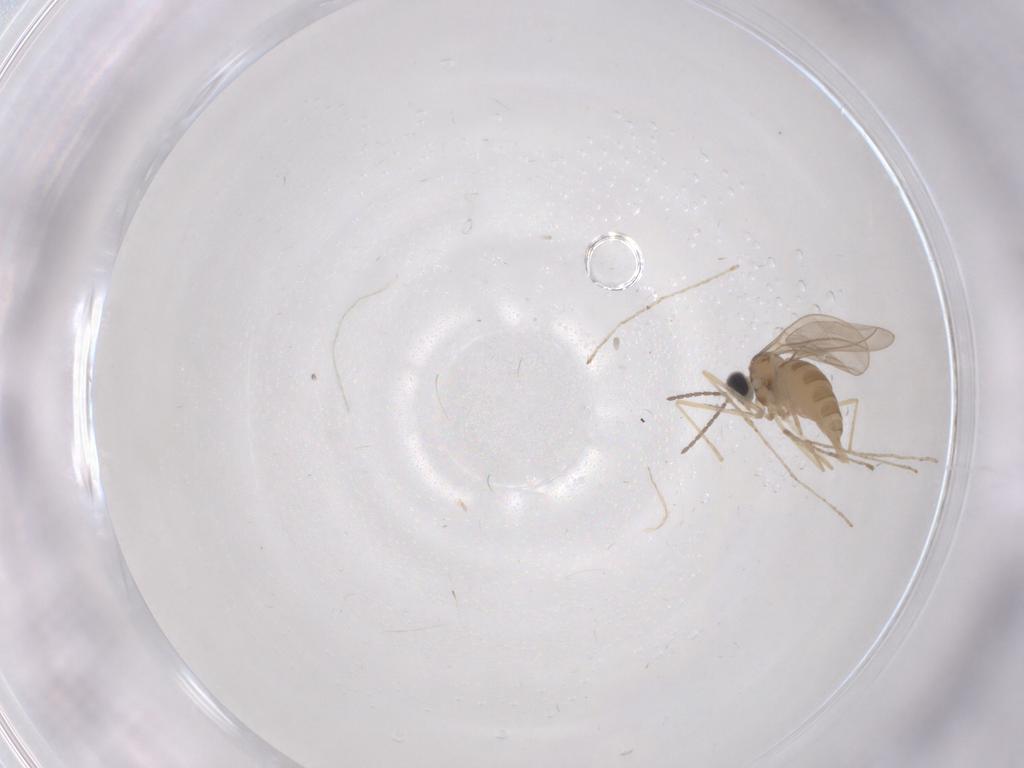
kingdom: Animalia
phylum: Arthropoda
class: Insecta
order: Diptera
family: Cecidomyiidae
